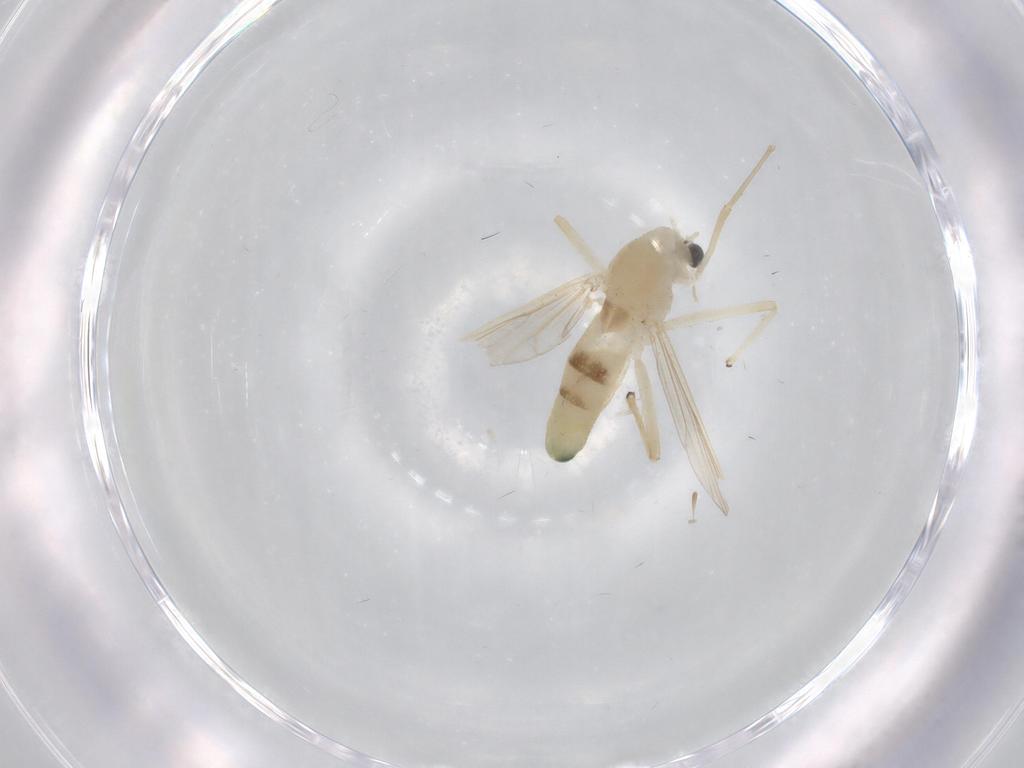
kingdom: Animalia
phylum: Arthropoda
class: Insecta
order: Diptera
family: Chironomidae
